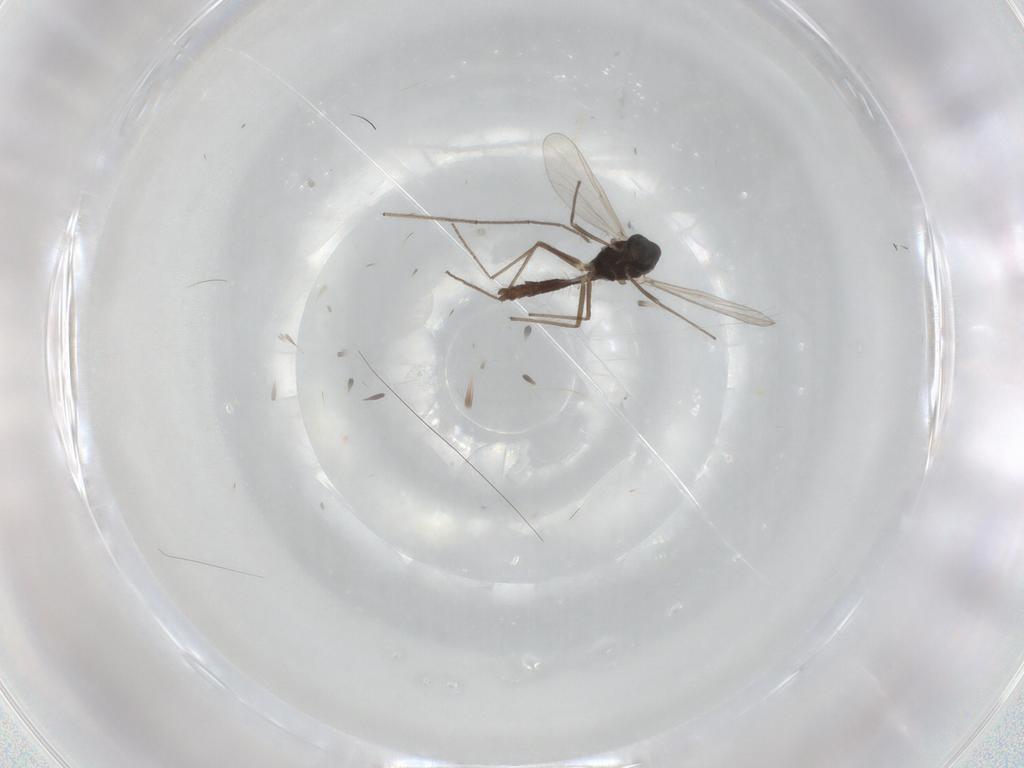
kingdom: Animalia
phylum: Arthropoda
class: Insecta
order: Diptera
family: Chironomidae
